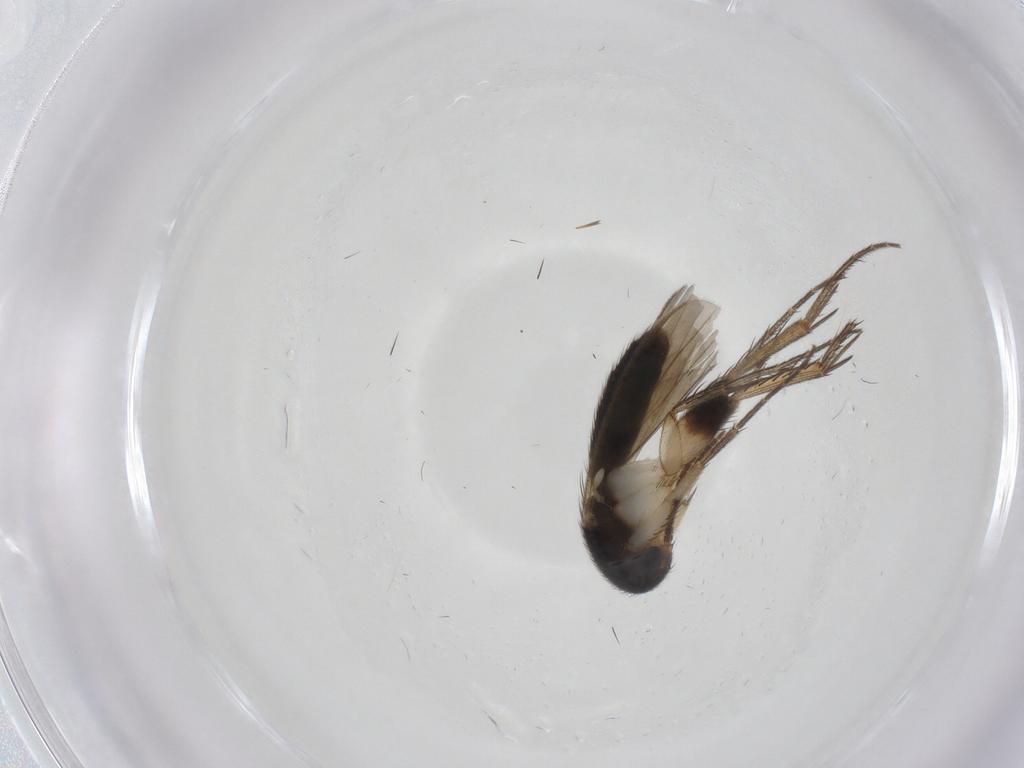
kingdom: Animalia
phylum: Arthropoda
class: Insecta
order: Diptera
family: Mycetophilidae
